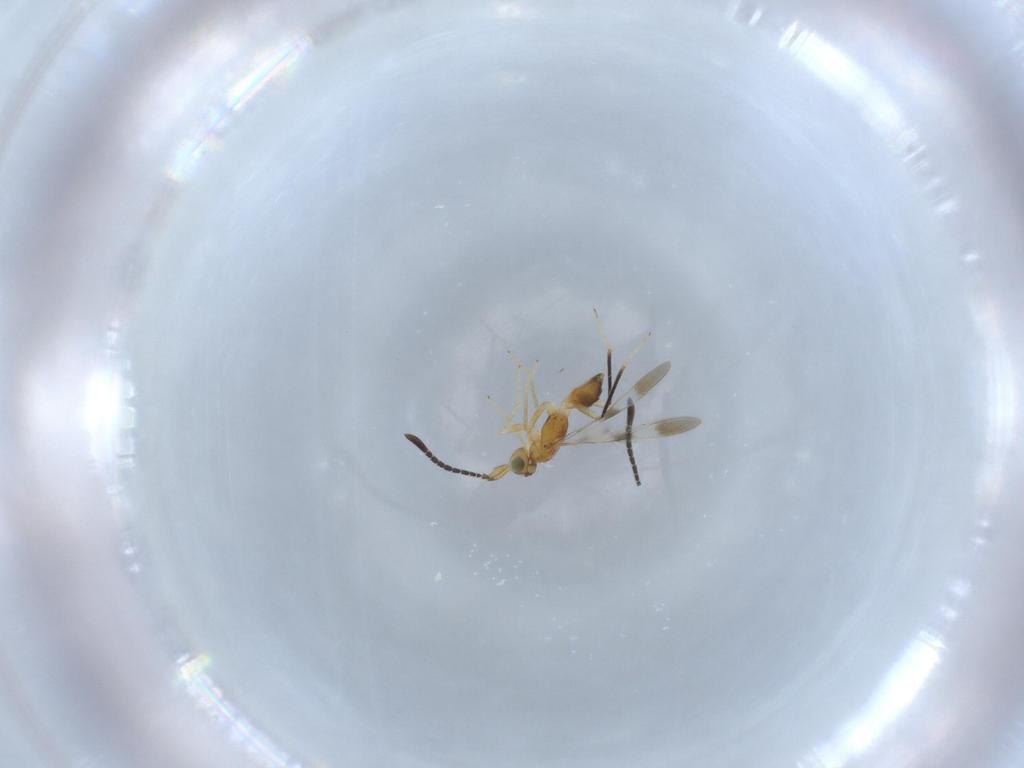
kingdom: Animalia
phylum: Arthropoda
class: Insecta
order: Hymenoptera
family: Mymaridae
